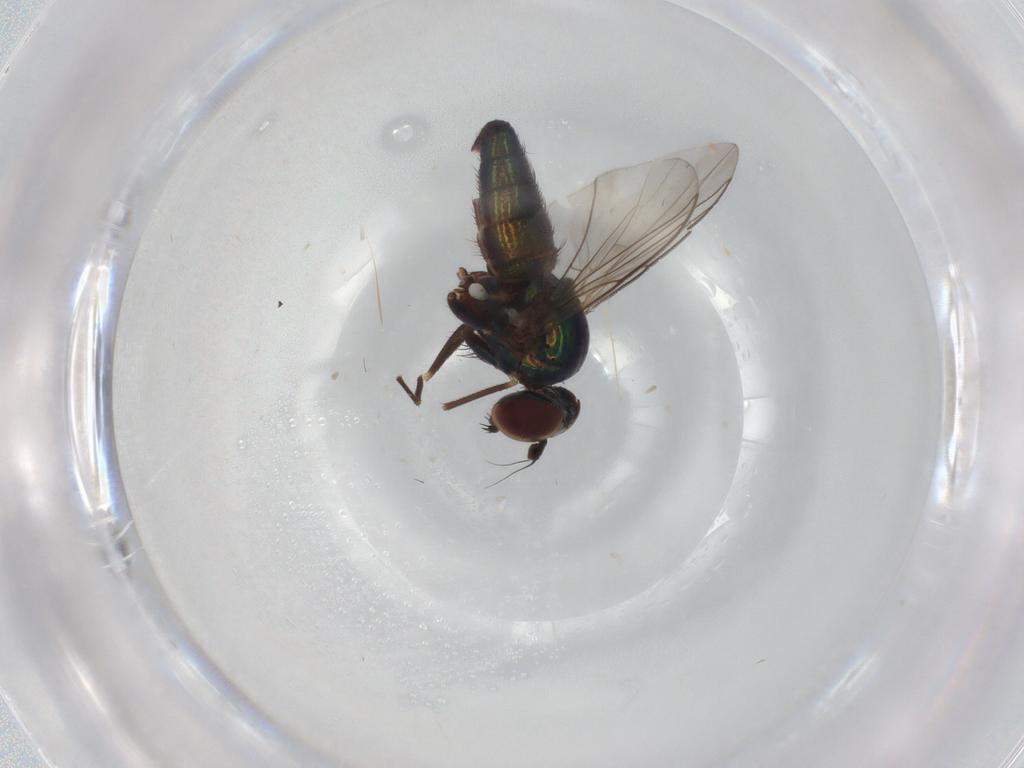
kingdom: Animalia
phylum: Arthropoda
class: Insecta
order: Diptera
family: Dolichopodidae
